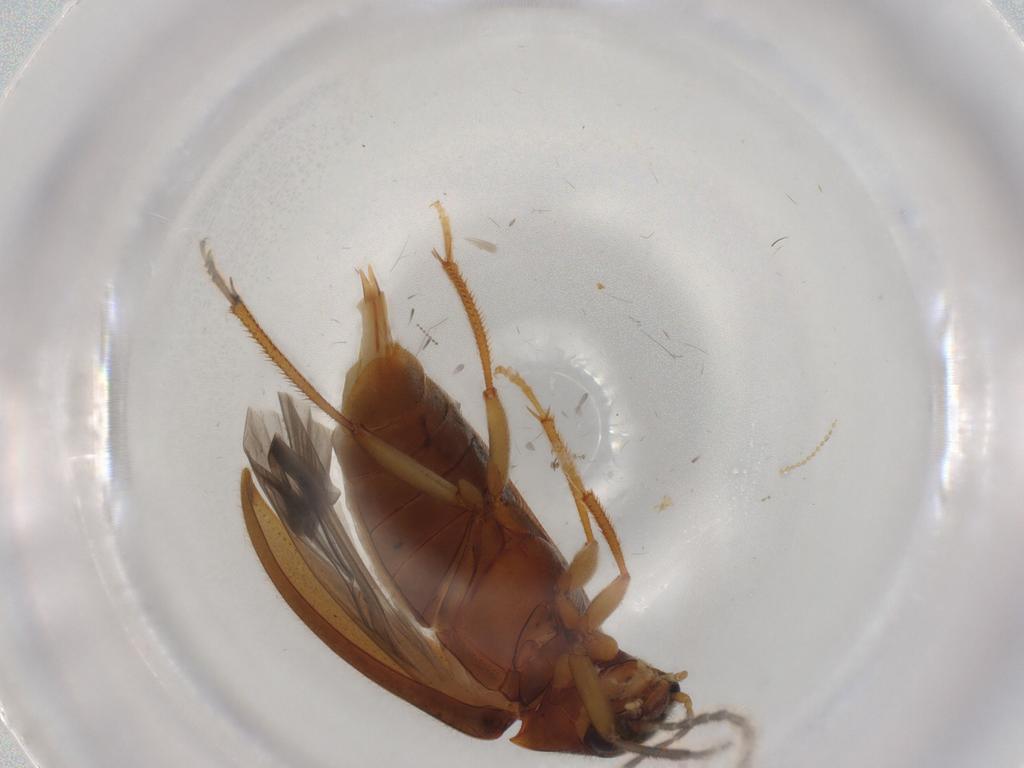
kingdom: Animalia
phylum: Arthropoda
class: Insecta
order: Coleoptera
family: Ptilodactylidae
